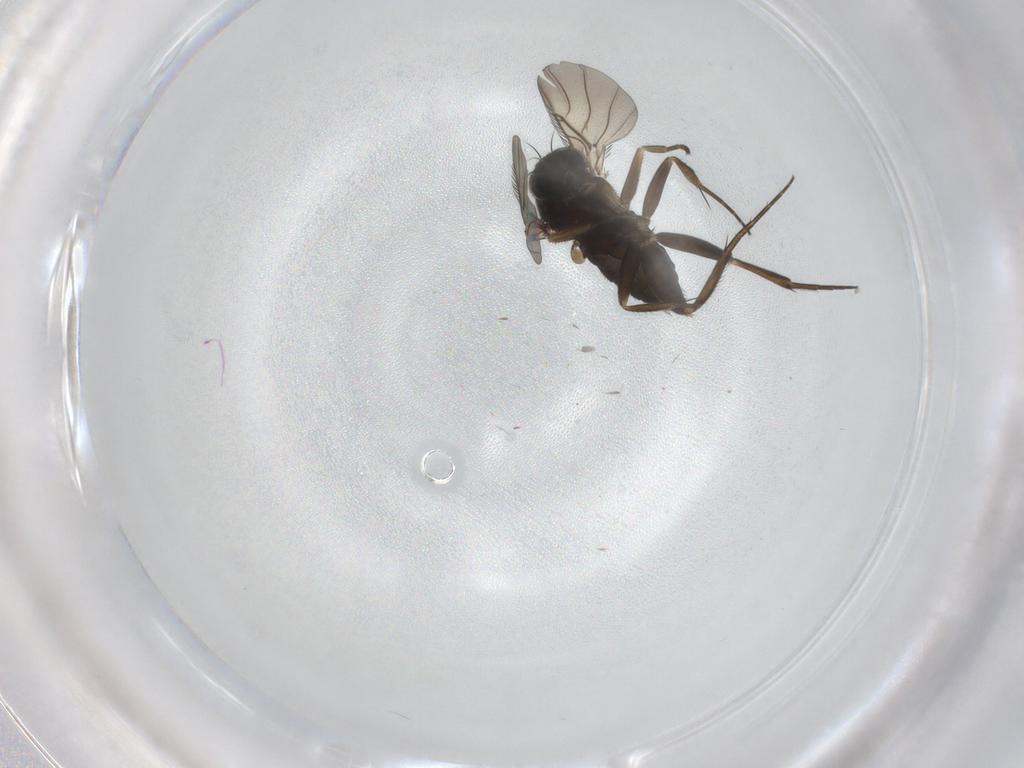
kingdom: Animalia
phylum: Arthropoda
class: Insecta
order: Diptera
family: Phoridae
